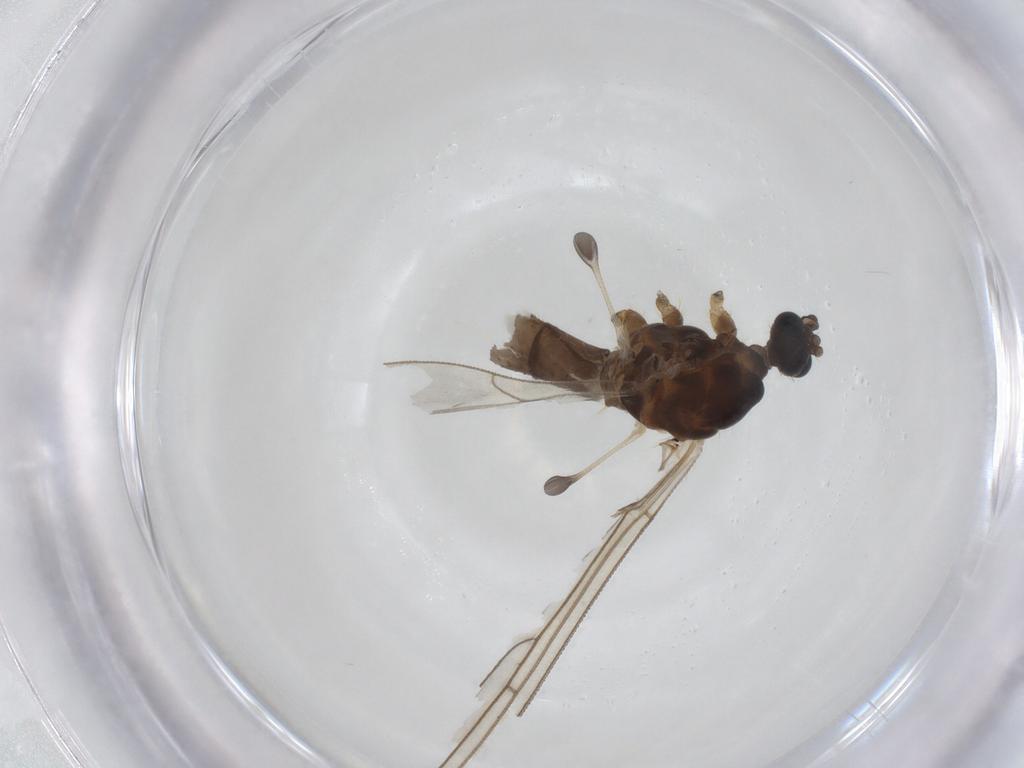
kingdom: Animalia
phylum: Arthropoda
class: Insecta
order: Diptera
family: Trichoceridae
